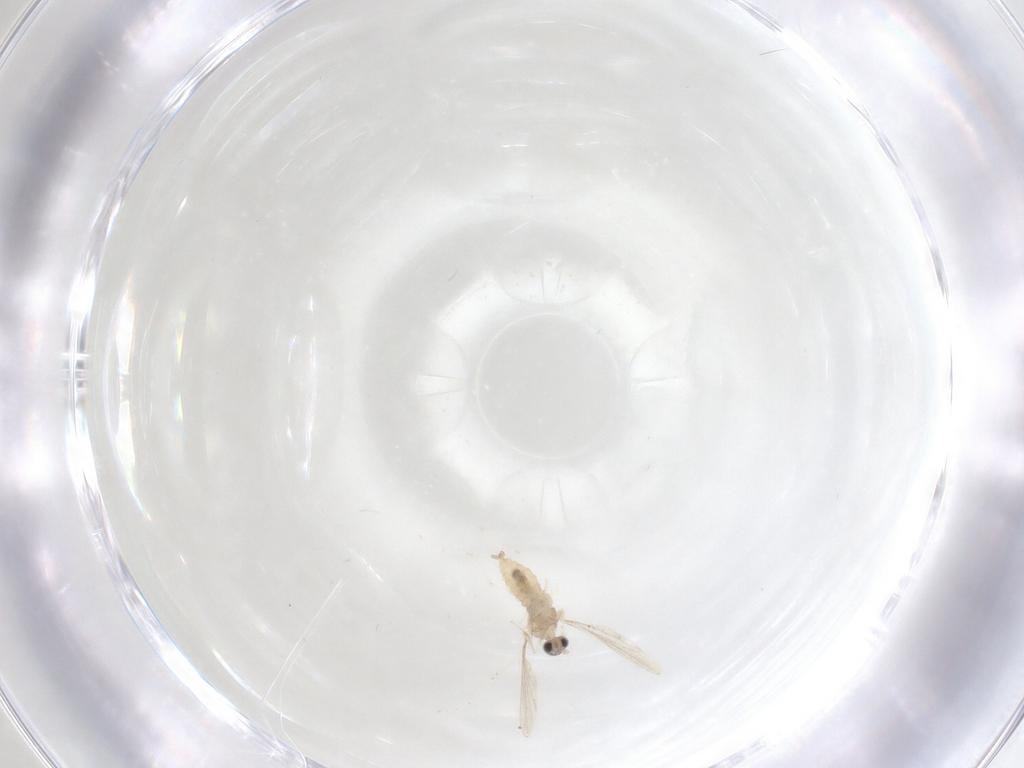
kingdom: Animalia
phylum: Arthropoda
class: Insecta
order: Diptera
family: Cecidomyiidae
